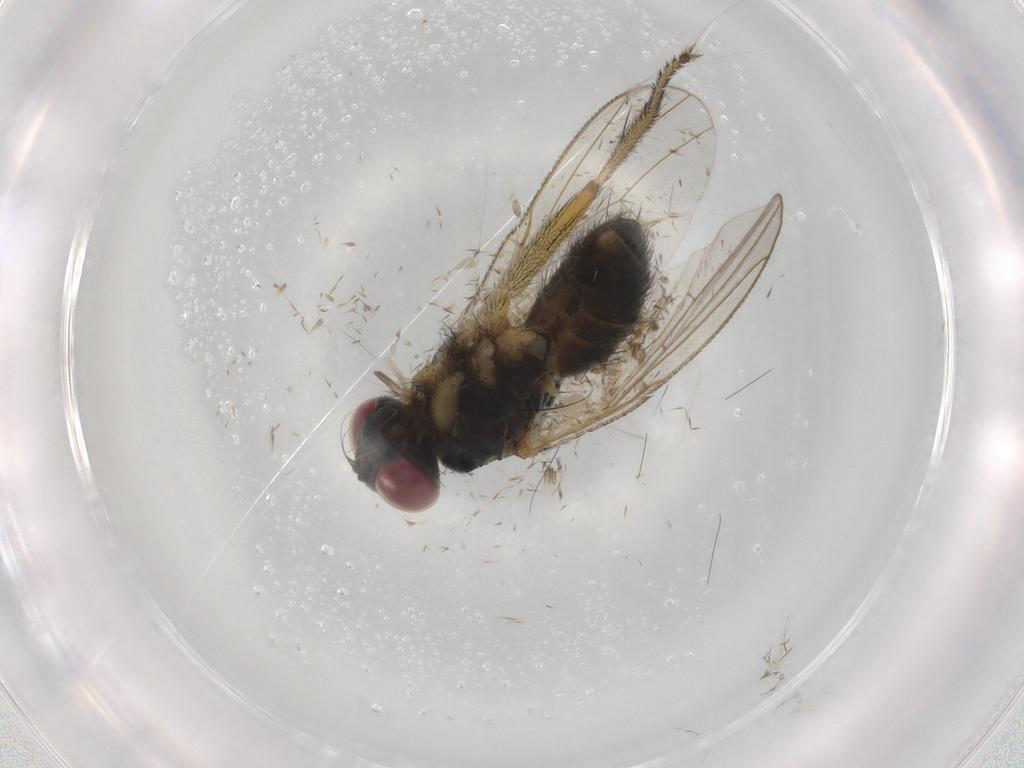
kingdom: Animalia
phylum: Arthropoda
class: Insecta
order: Diptera
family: Muscidae
